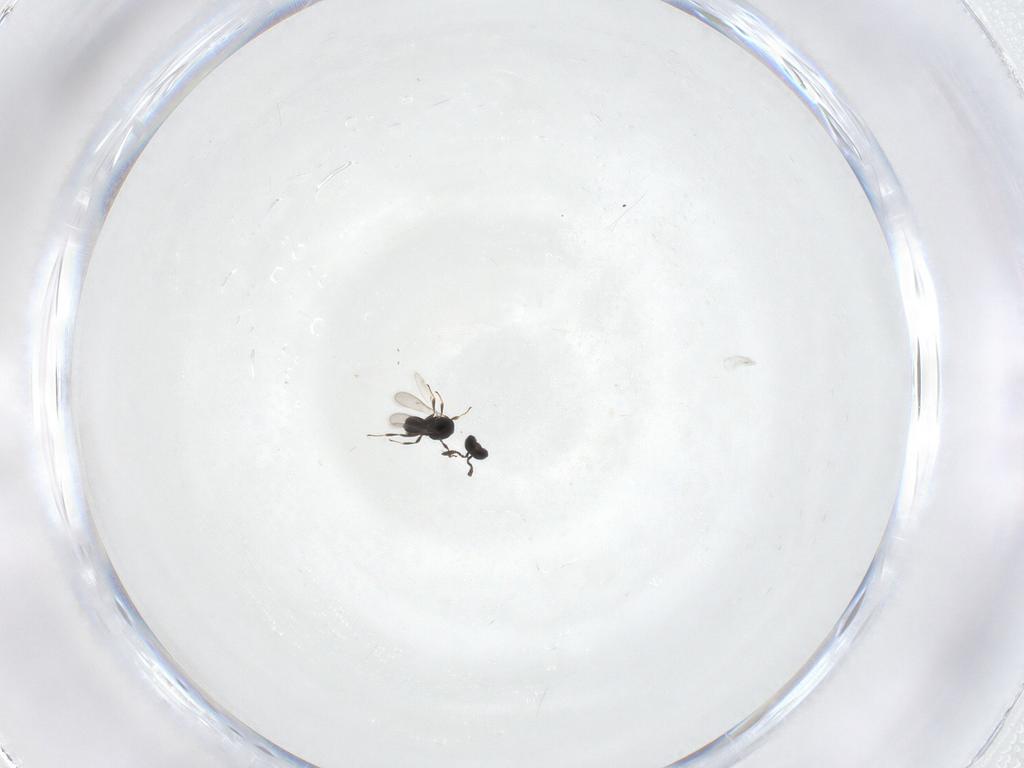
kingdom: Animalia
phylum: Arthropoda
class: Insecta
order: Hymenoptera
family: Scelionidae
